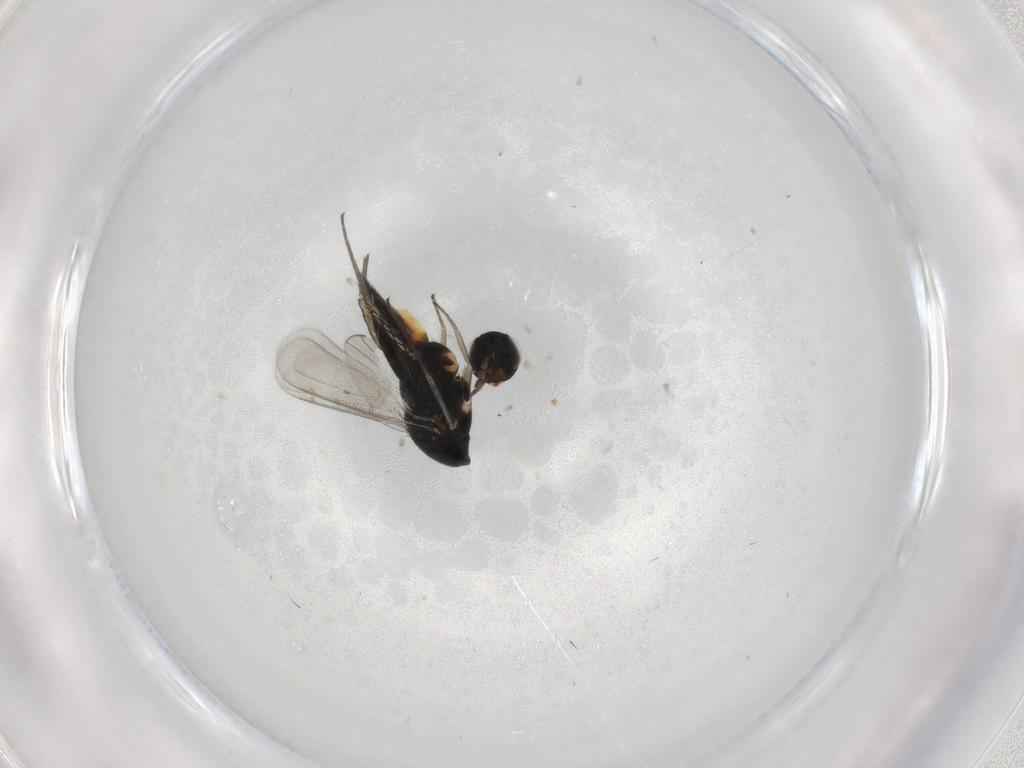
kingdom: Animalia
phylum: Arthropoda
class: Insecta
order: Hymenoptera
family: Eulophidae
